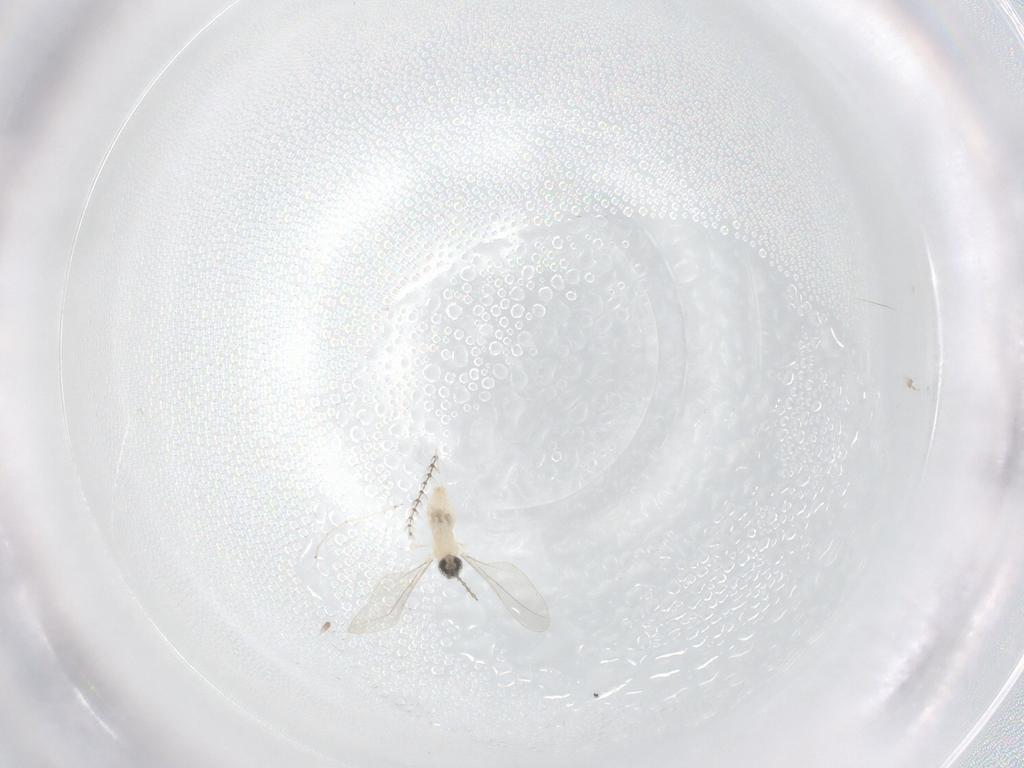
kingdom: Animalia
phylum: Arthropoda
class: Insecta
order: Diptera
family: Cecidomyiidae
